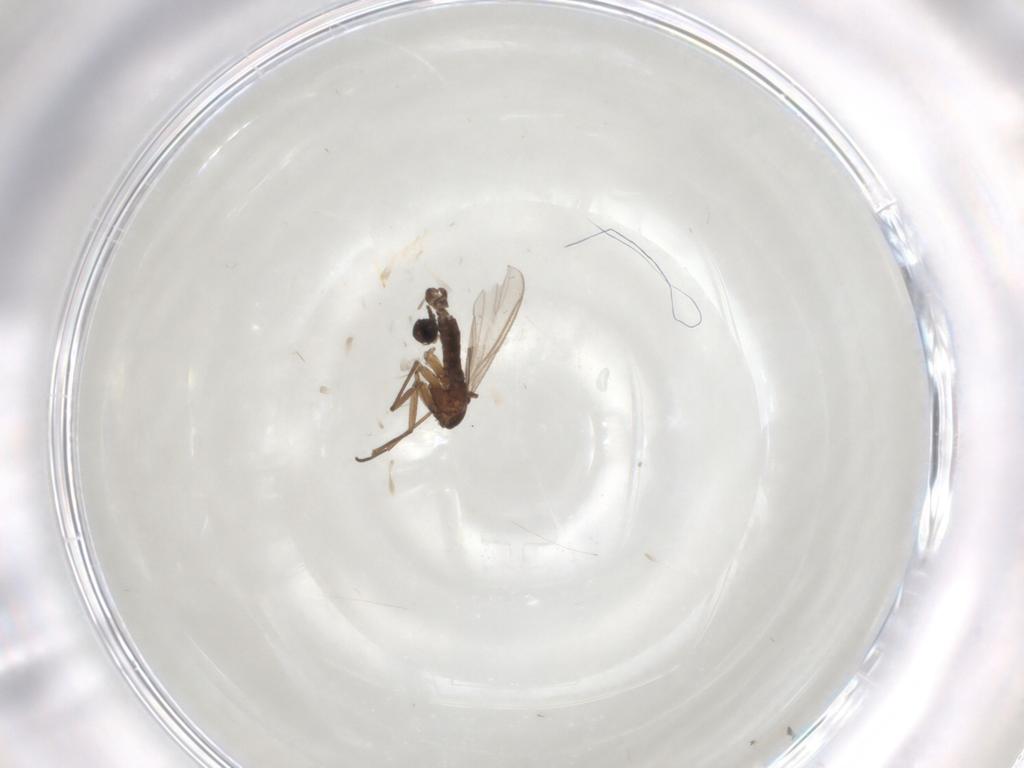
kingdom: Animalia
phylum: Arthropoda
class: Insecta
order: Diptera
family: Sciaridae
